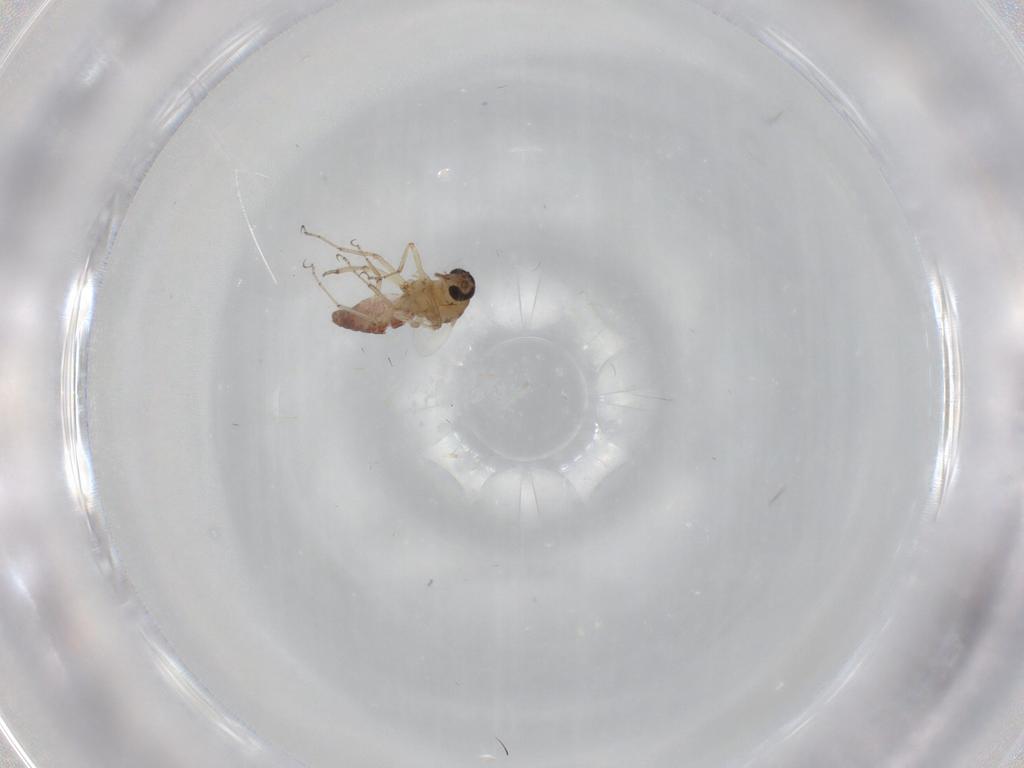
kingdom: Animalia
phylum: Arthropoda
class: Insecta
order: Diptera
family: Ceratopogonidae
